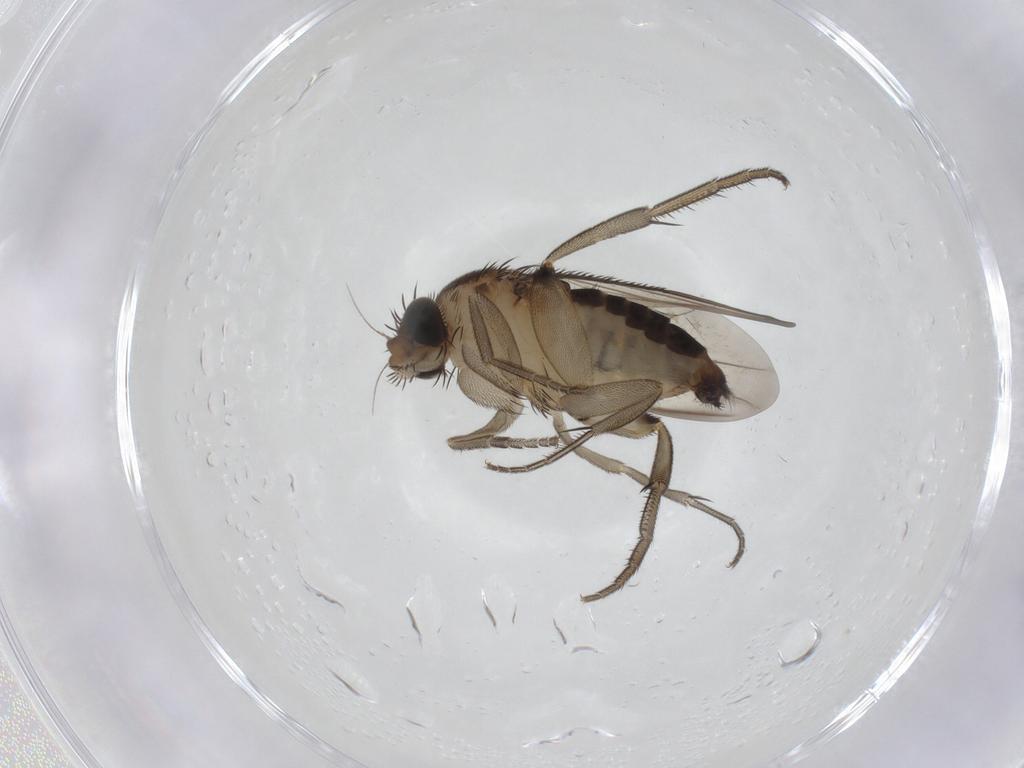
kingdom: Animalia
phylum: Arthropoda
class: Insecta
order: Diptera
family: Phoridae
